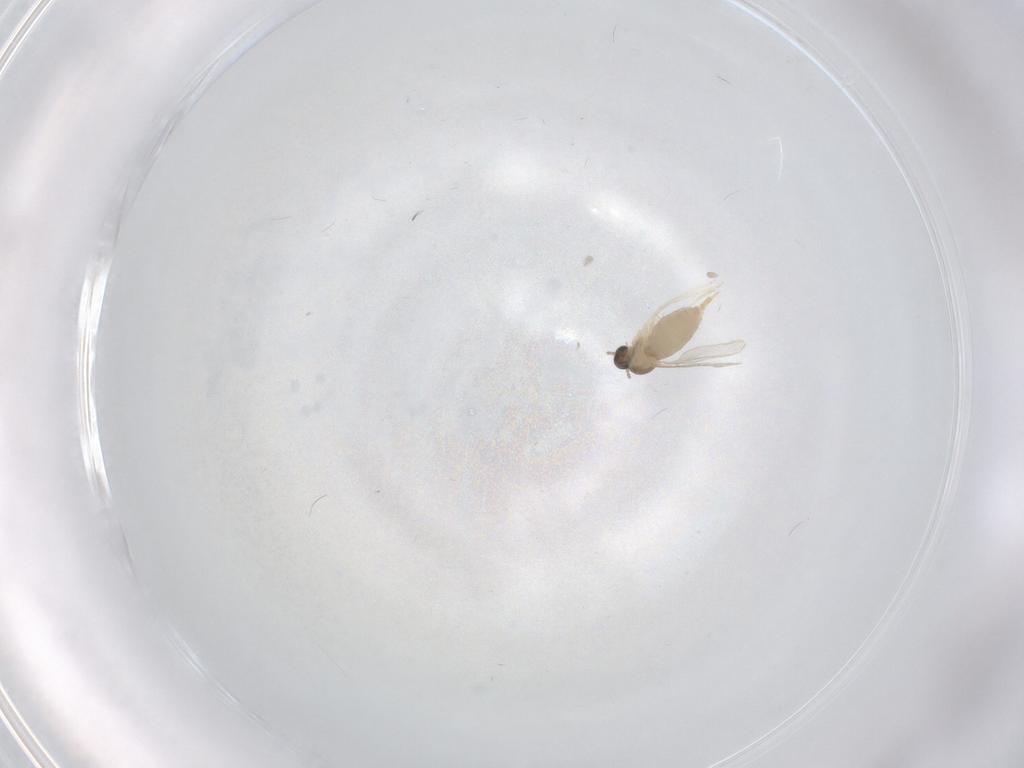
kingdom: Animalia
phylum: Arthropoda
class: Insecta
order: Diptera
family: Cecidomyiidae
